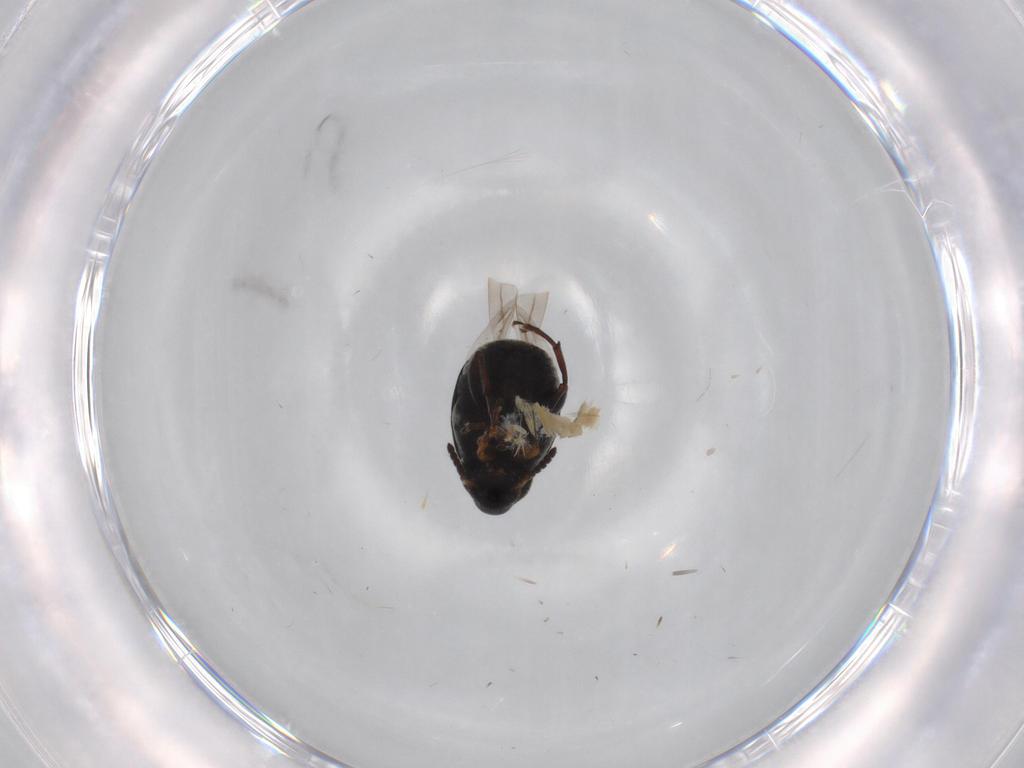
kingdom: Animalia
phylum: Arthropoda
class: Insecta
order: Coleoptera
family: Chrysomelidae
